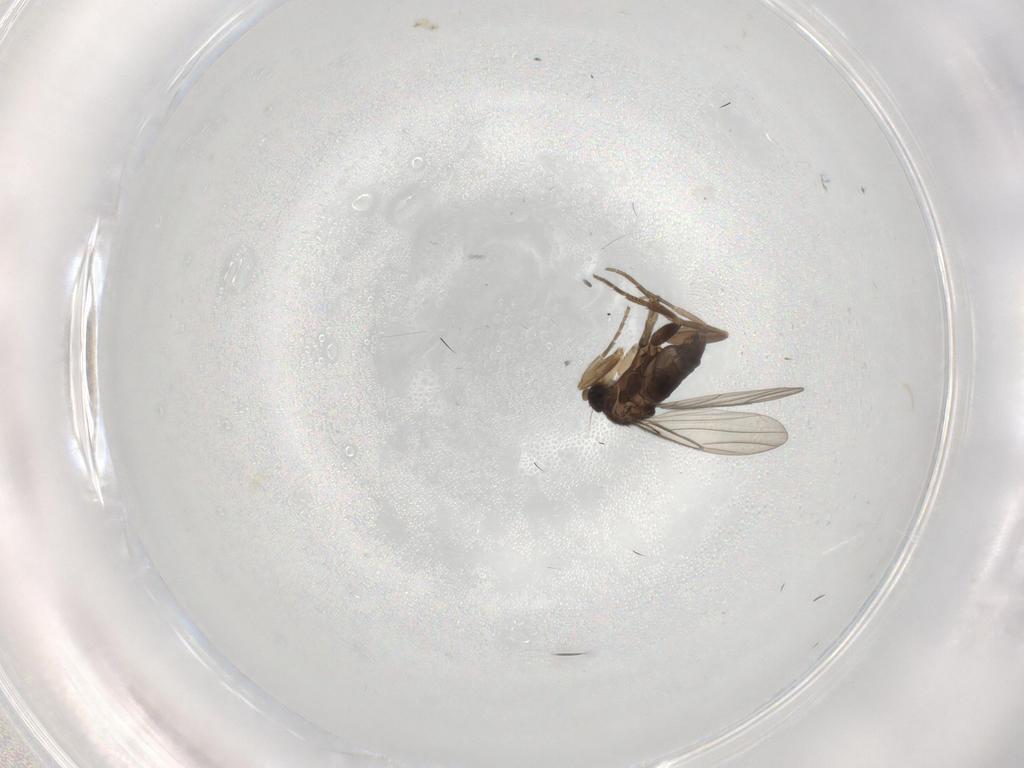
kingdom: Animalia
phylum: Arthropoda
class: Insecta
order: Diptera
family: Phoridae
